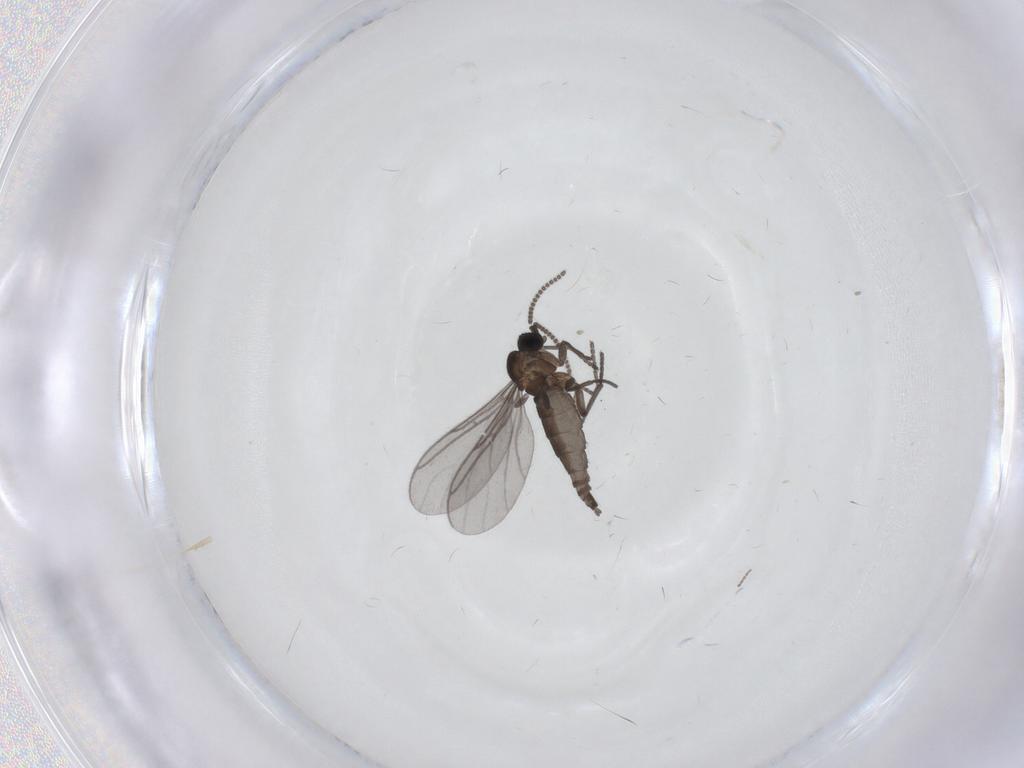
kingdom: Animalia
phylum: Arthropoda
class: Insecta
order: Diptera
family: Sciaridae
